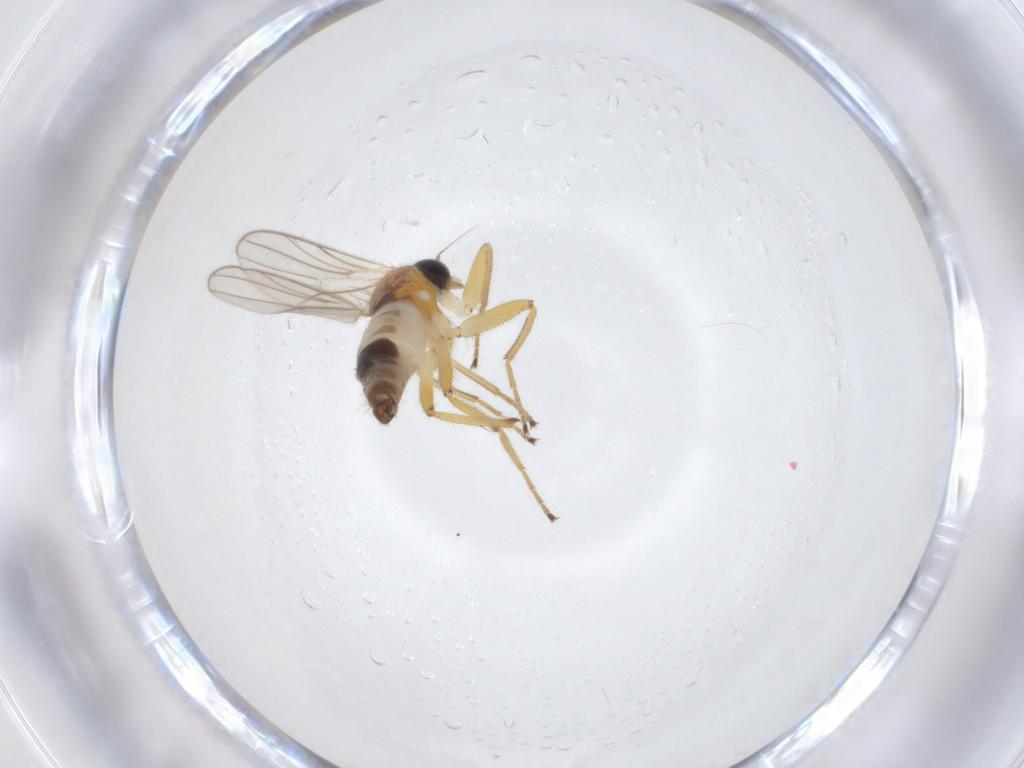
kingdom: Animalia
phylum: Arthropoda
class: Insecta
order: Diptera
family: Hybotidae
